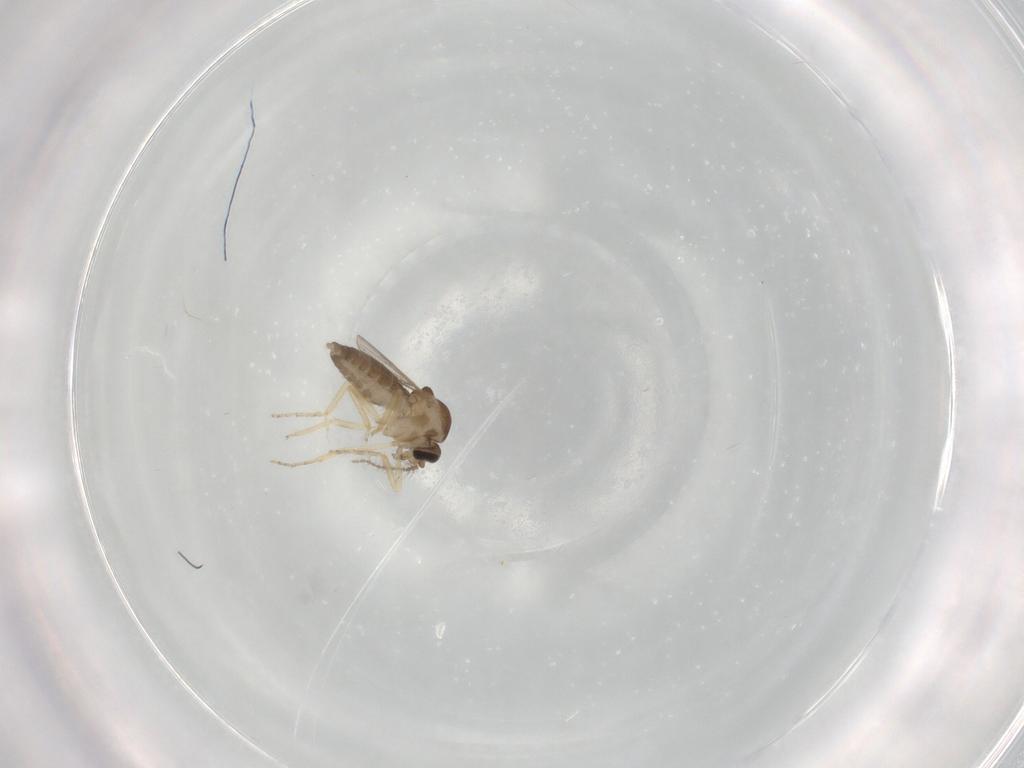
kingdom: Animalia
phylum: Arthropoda
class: Insecta
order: Diptera
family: Ceratopogonidae
